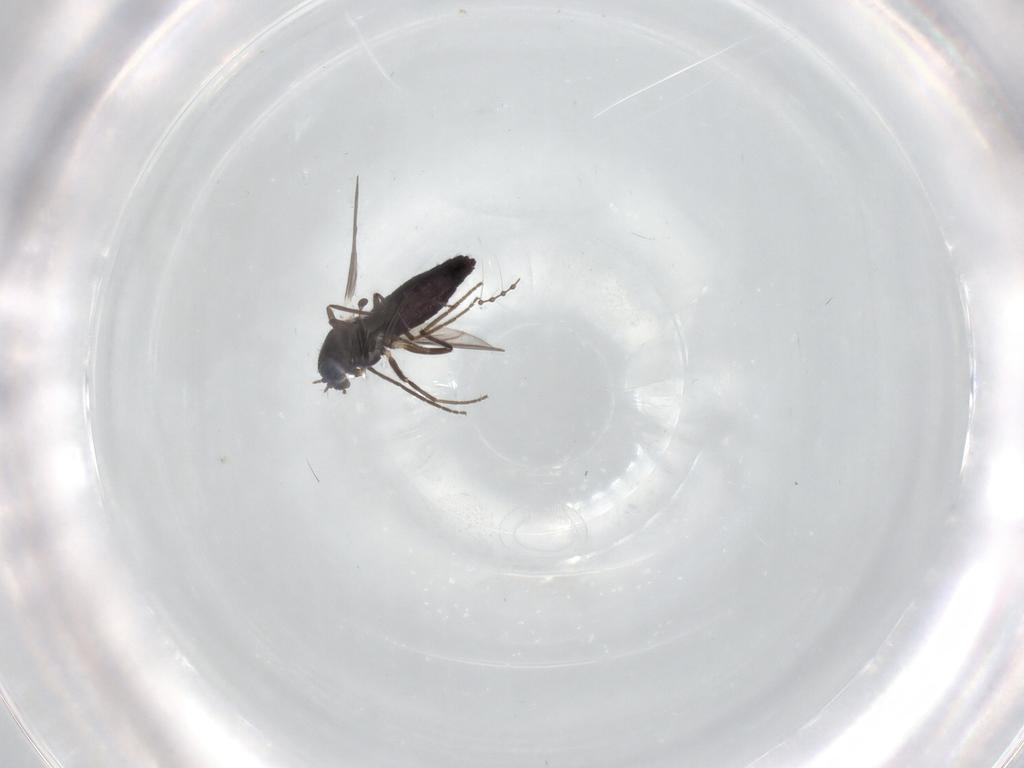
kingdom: Animalia
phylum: Arthropoda
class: Insecta
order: Diptera
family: Chironomidae
